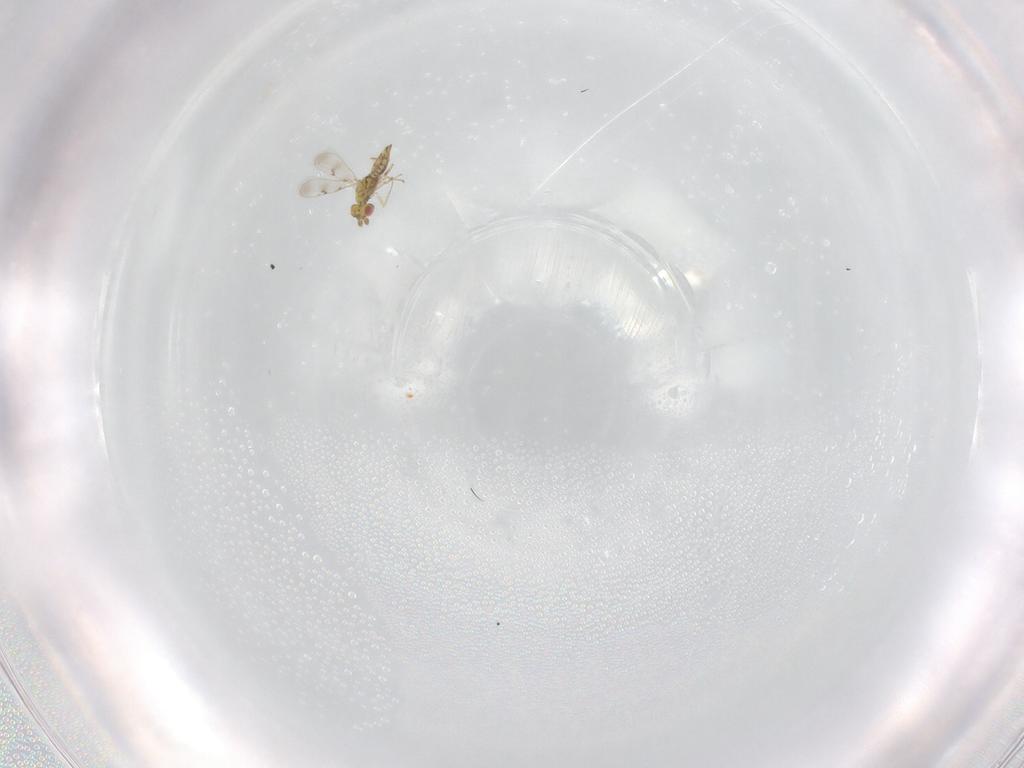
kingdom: Animalia
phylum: Arthropoda
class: Insecta
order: Hymenoptera
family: Eulophidae
